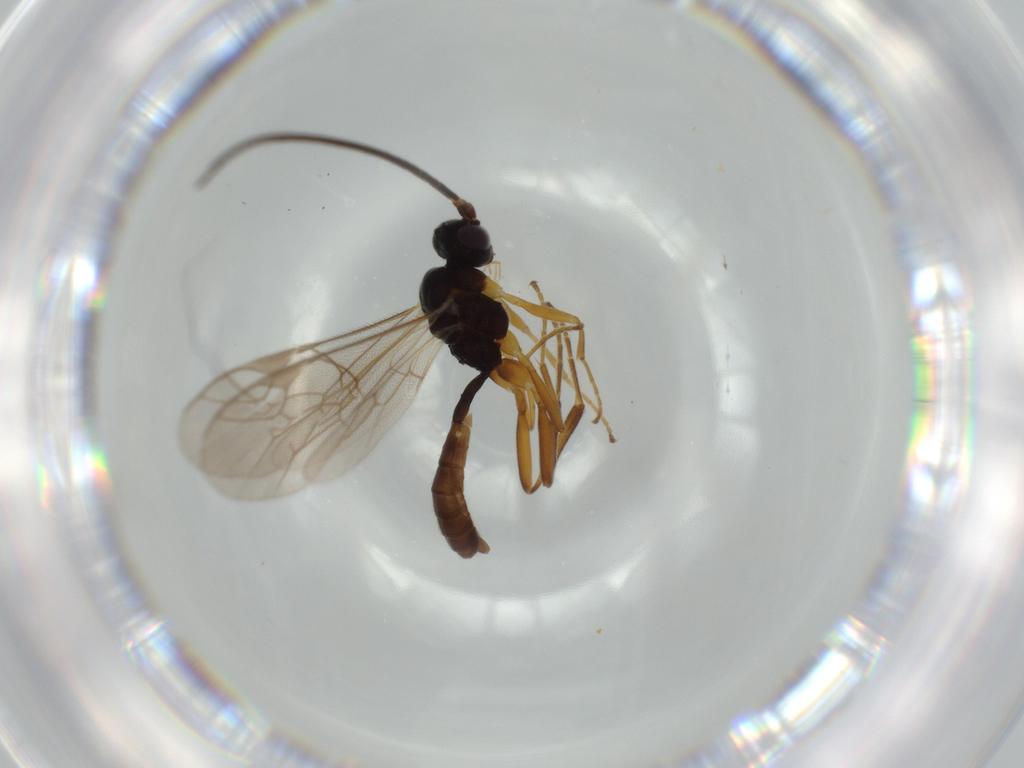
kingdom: Animalia
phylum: Arthropoda
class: Insecta
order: Hymenoptera
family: Ichneumonidae
